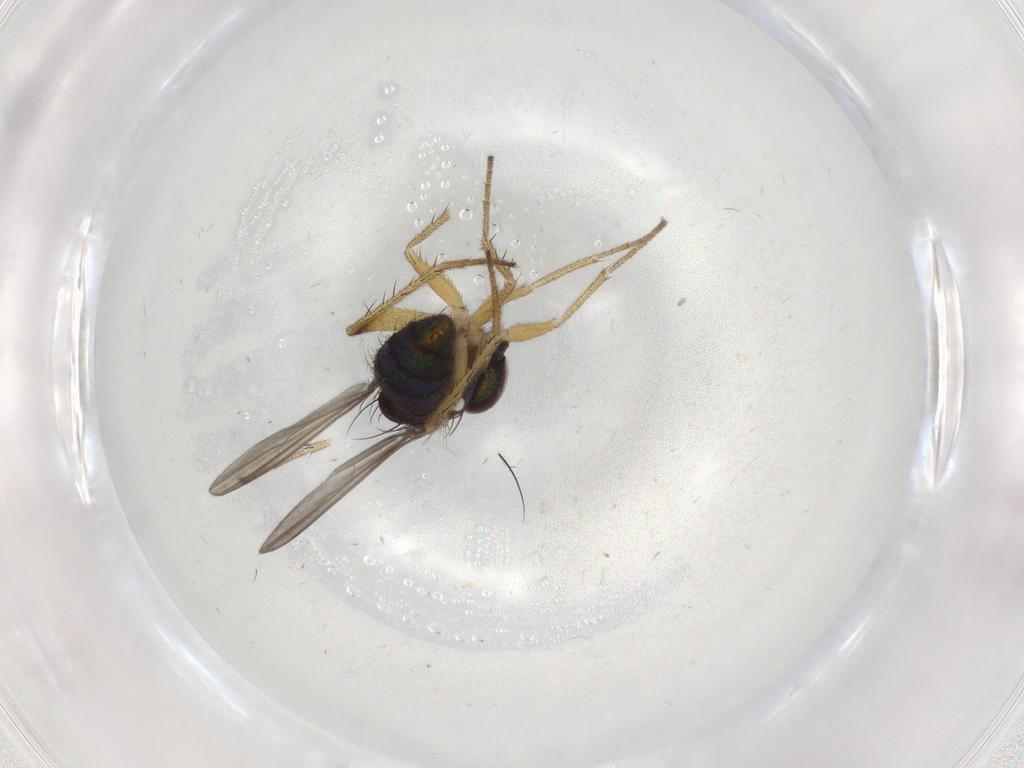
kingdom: Animalia
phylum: Arthropoda
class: Insecta
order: Diptera
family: Dolichopodidae
